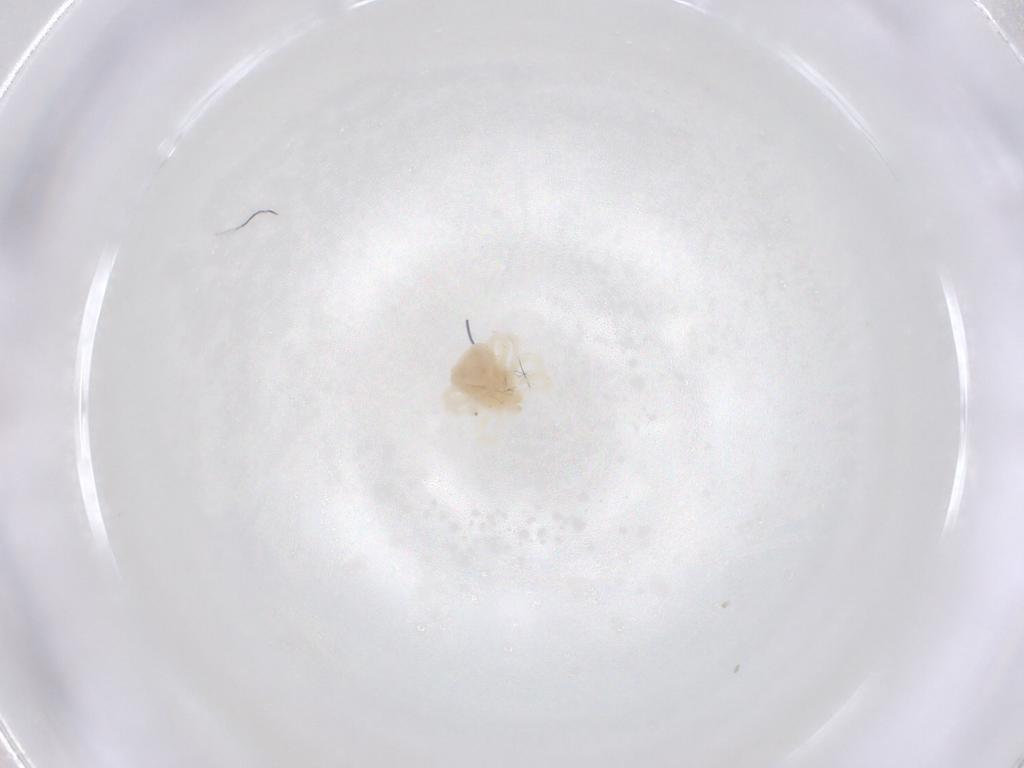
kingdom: Animalia
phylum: Arthropoda
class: Arachnida
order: Trombidiformes
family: Anystidae
